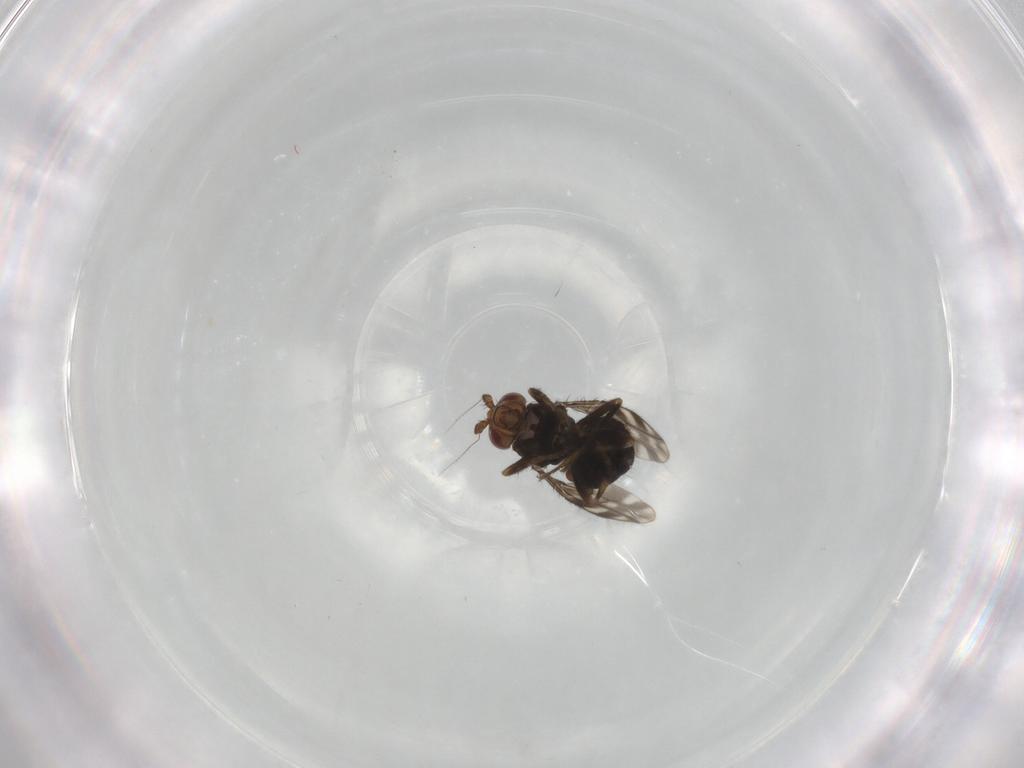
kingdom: Animalia
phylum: Arthropoda
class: Insecta
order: Diptera
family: Sphaeroceridae
